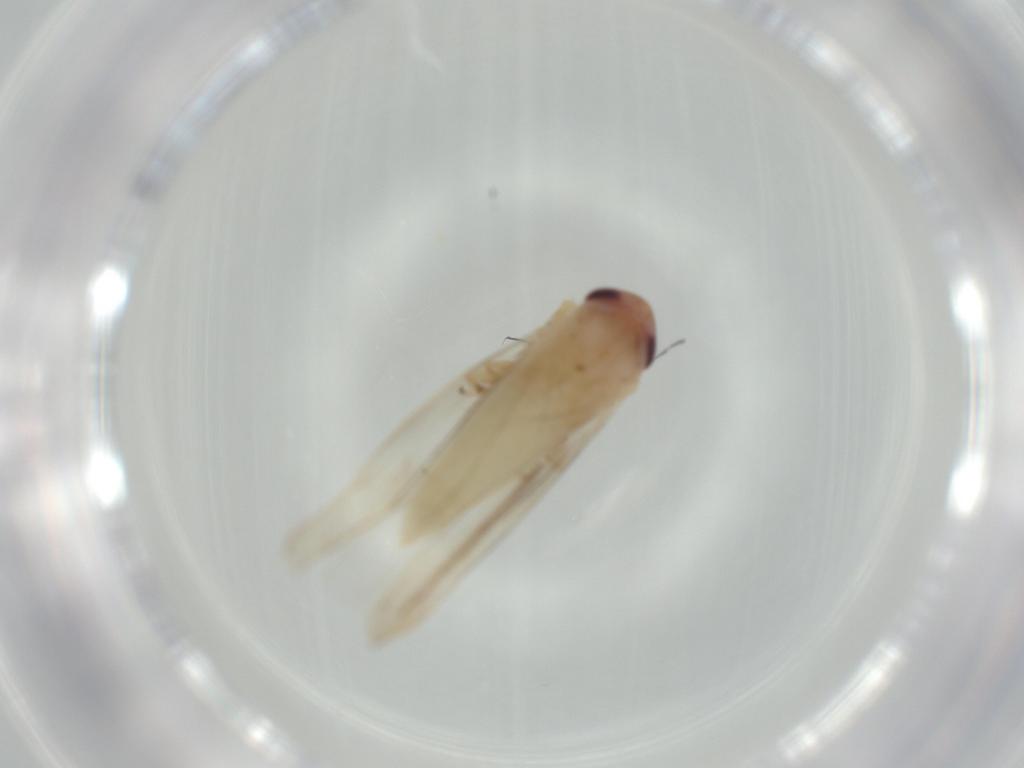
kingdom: Animalia
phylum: Arthropoda
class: Insecta
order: Hemiptera
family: Cicadellidae
